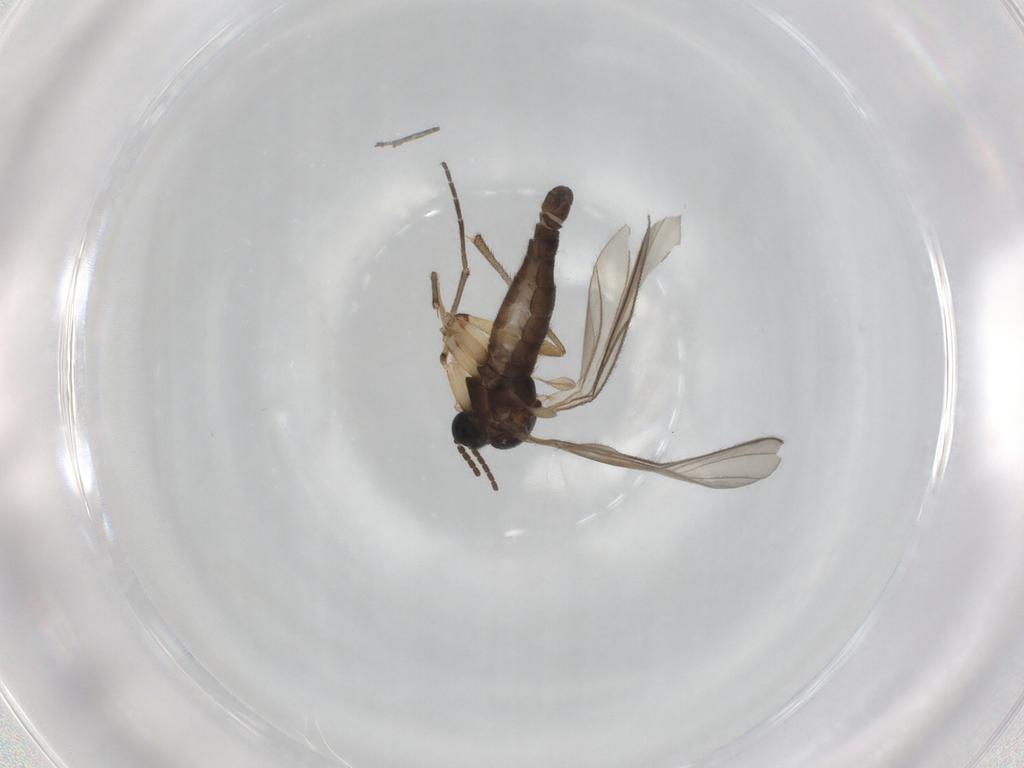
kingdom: Animalia
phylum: Arthropoda
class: Insecta
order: Diptera
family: Sciaridae
